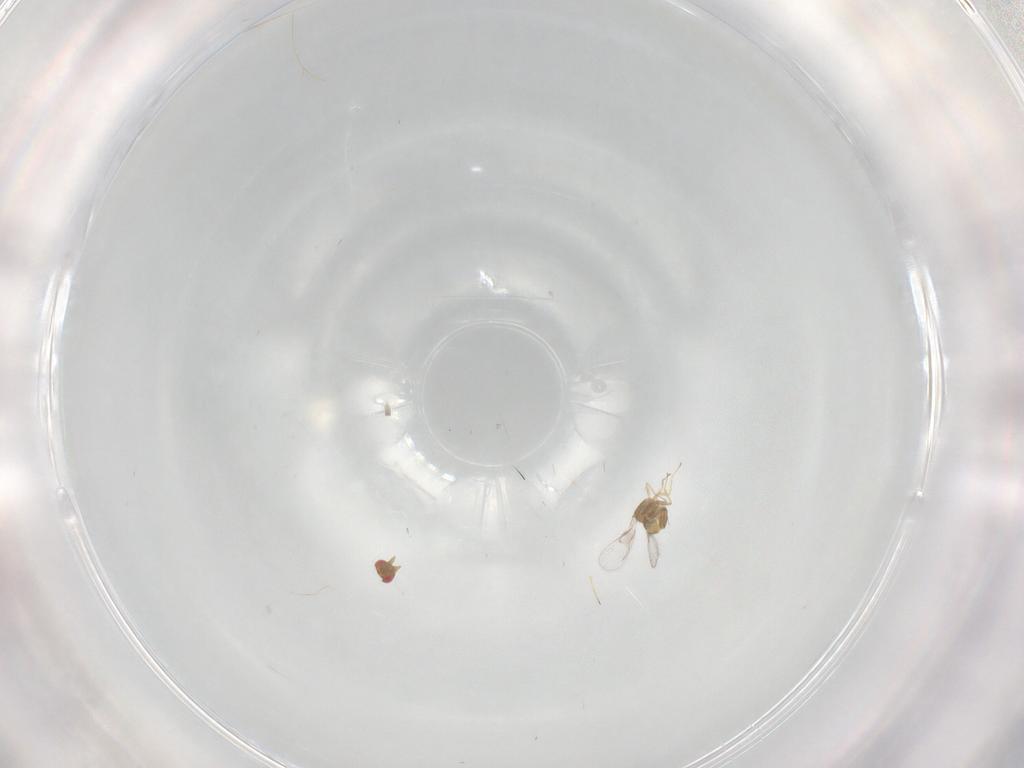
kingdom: Animalia
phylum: Arthropoda
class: Insecta
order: Hymenoptera
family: Trichogrammatidae
